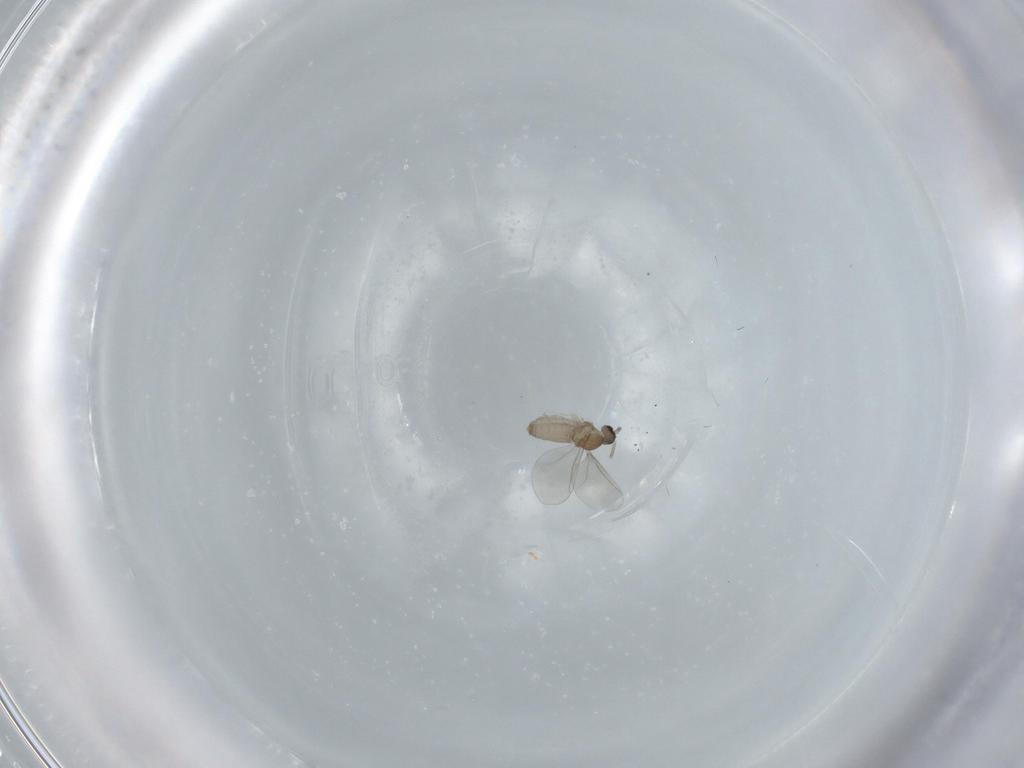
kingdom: Animalia
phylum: Arthropoda
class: Insecta
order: Diptera
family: Cecidomyiidae
